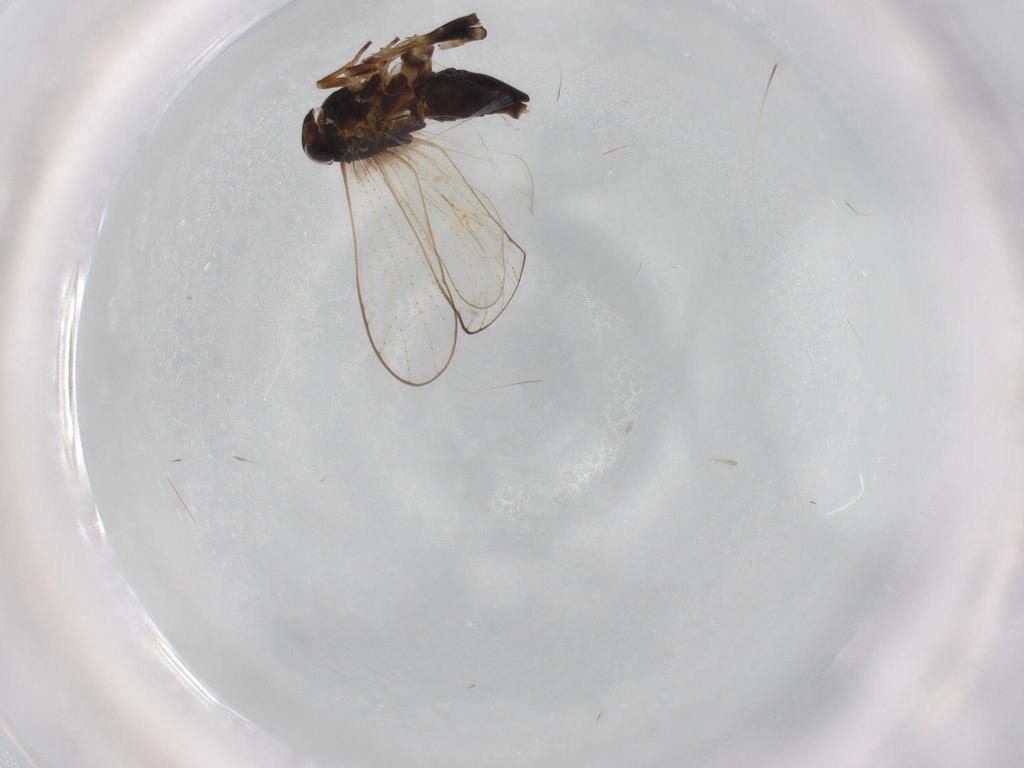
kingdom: Animalia
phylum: Arthropoda
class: Insecta
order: Hemiptera
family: Delphacidae
